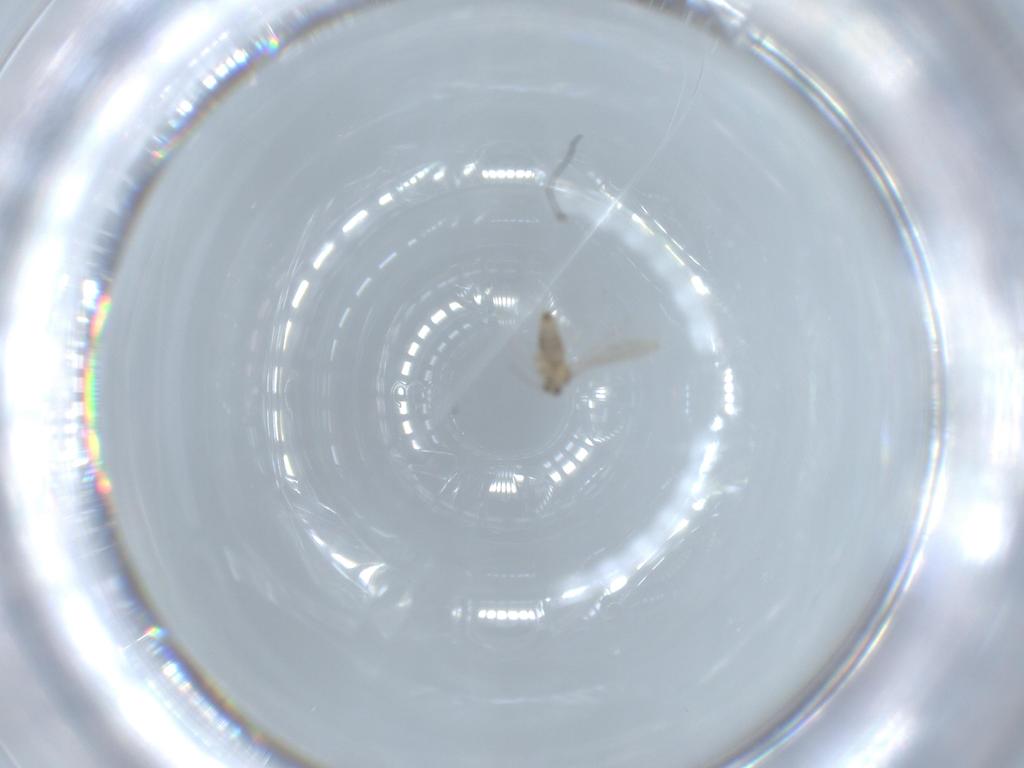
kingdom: Animalia
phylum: Arthropoda
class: Insecta
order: Diptera
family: Cecidomyiidae
